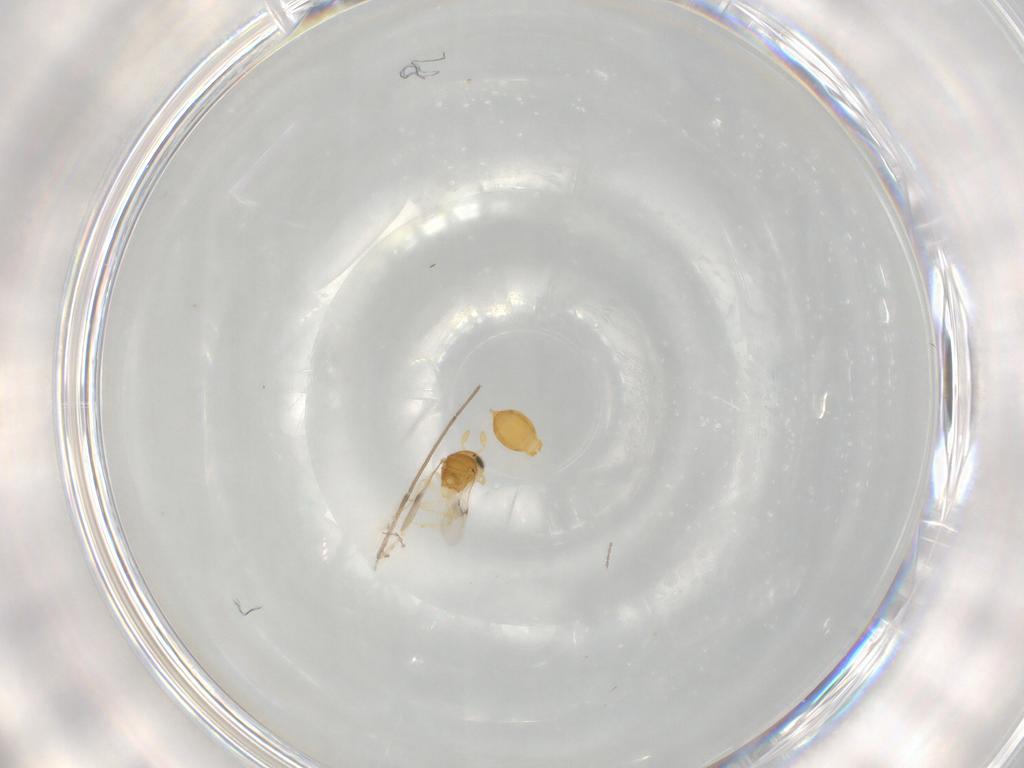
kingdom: Animalia
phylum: Arthropoda
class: Insecta
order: Hymenoptera
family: Scelionidae
